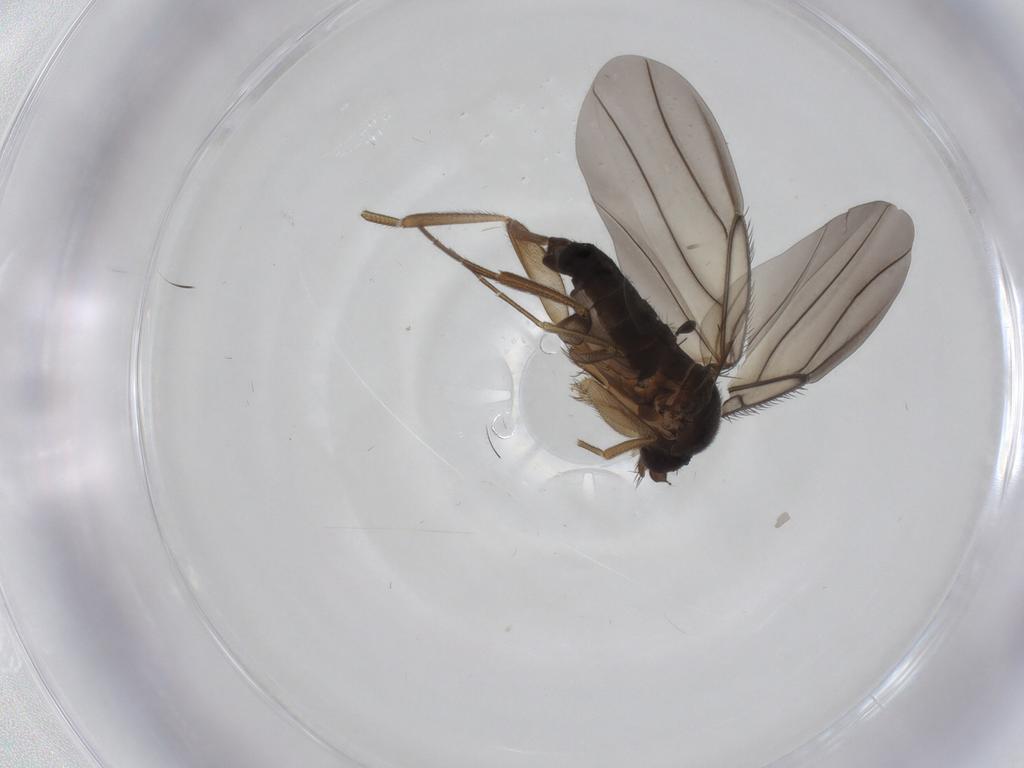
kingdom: Animalia
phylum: Arthropoda
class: Insecta
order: Diptera
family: Phoridae
